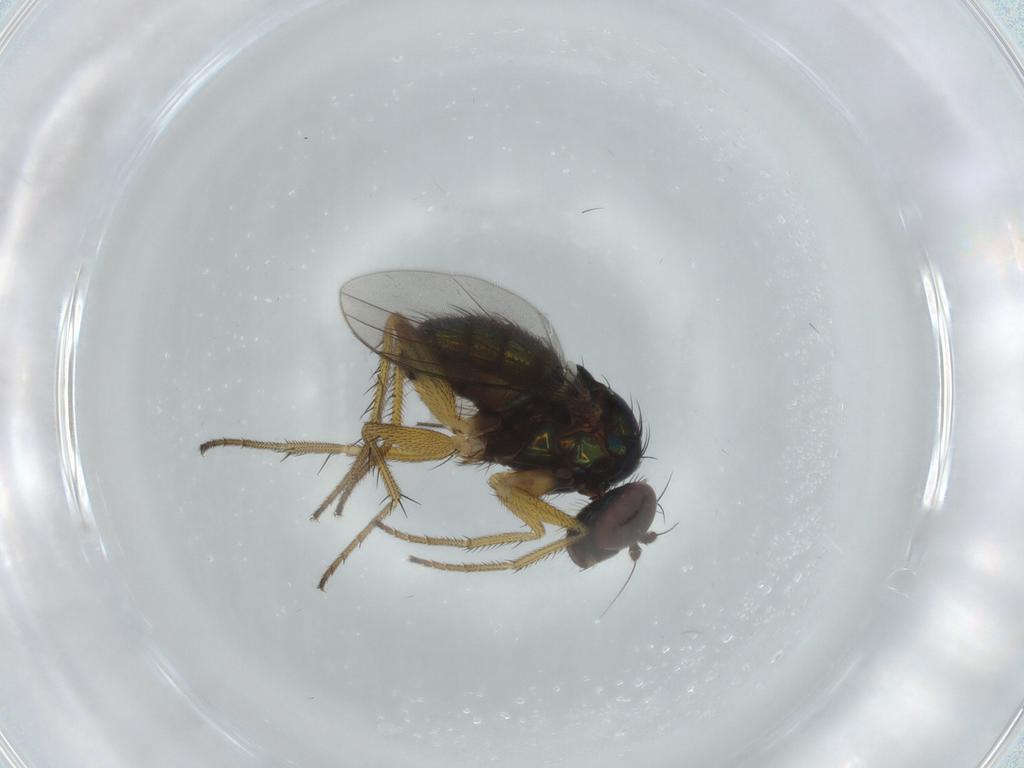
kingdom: Animalia
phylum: Arthropoda
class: Insecta
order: Diptera
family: Dolichopodidae
